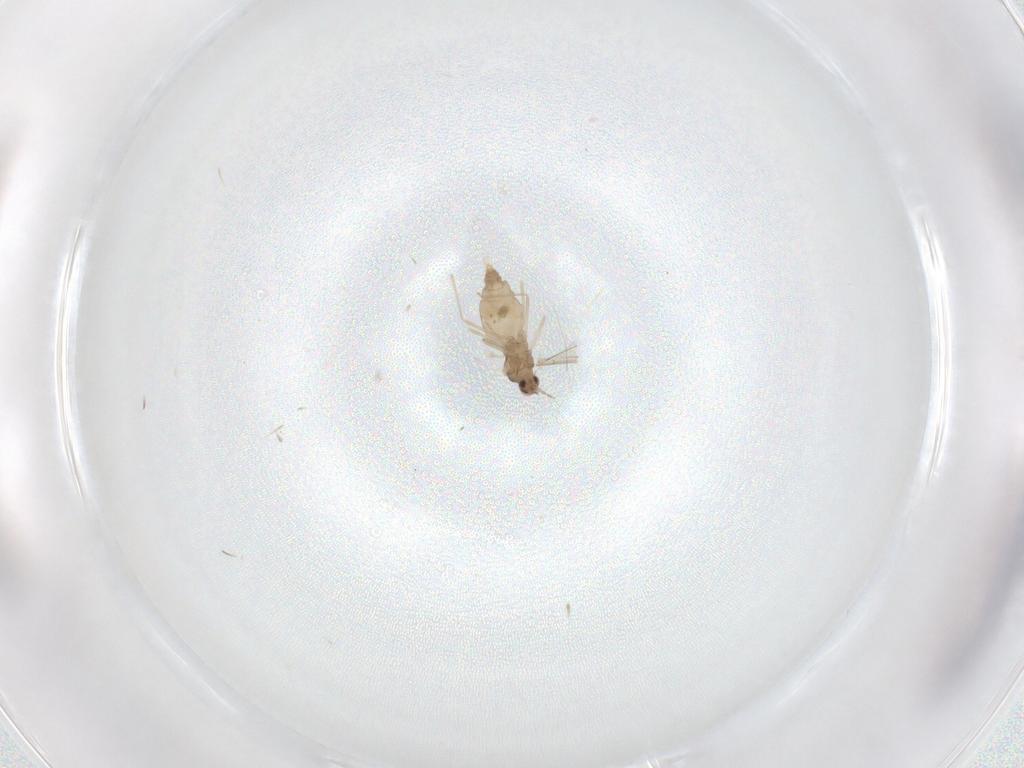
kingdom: Animalia
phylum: Arthropoda
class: Insecta
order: Diptera
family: Cecidomyiidae
